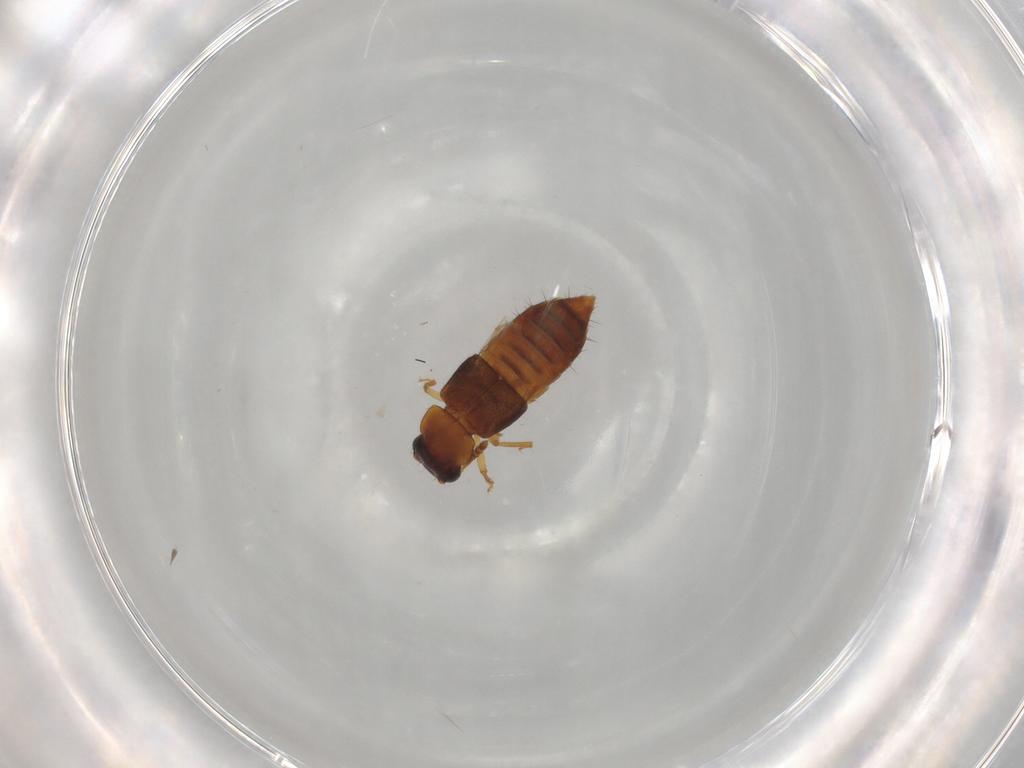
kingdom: Animalia
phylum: Arthropoda
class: Insecta
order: Coleoptera
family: Staphylinidae
